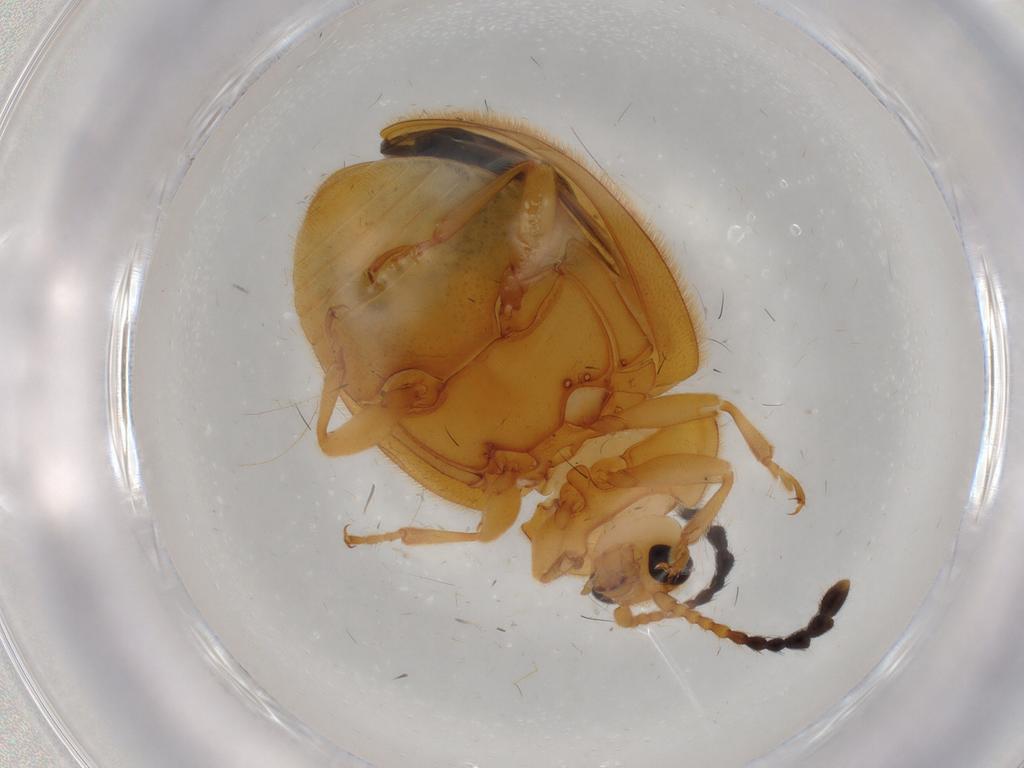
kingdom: Animalia
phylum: Arthropoda
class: Insecta
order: Coleoptera
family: Endomychidae
